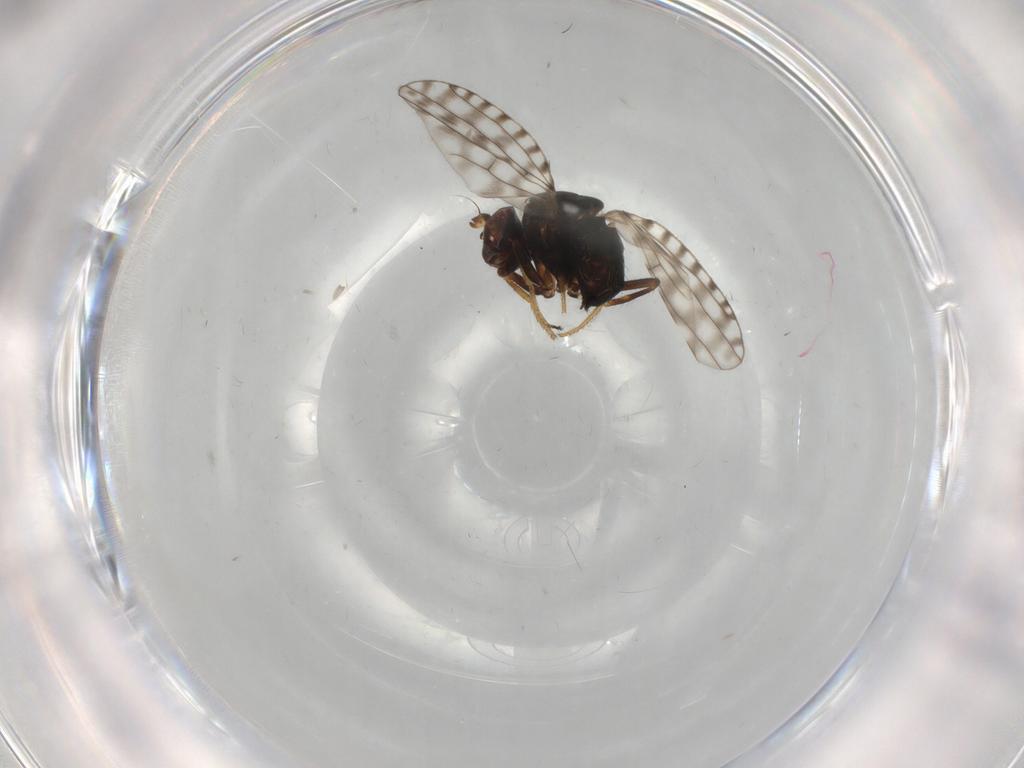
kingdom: Animalia
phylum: Arthropoda
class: Insecta
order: Diptera
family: Ephydridae
